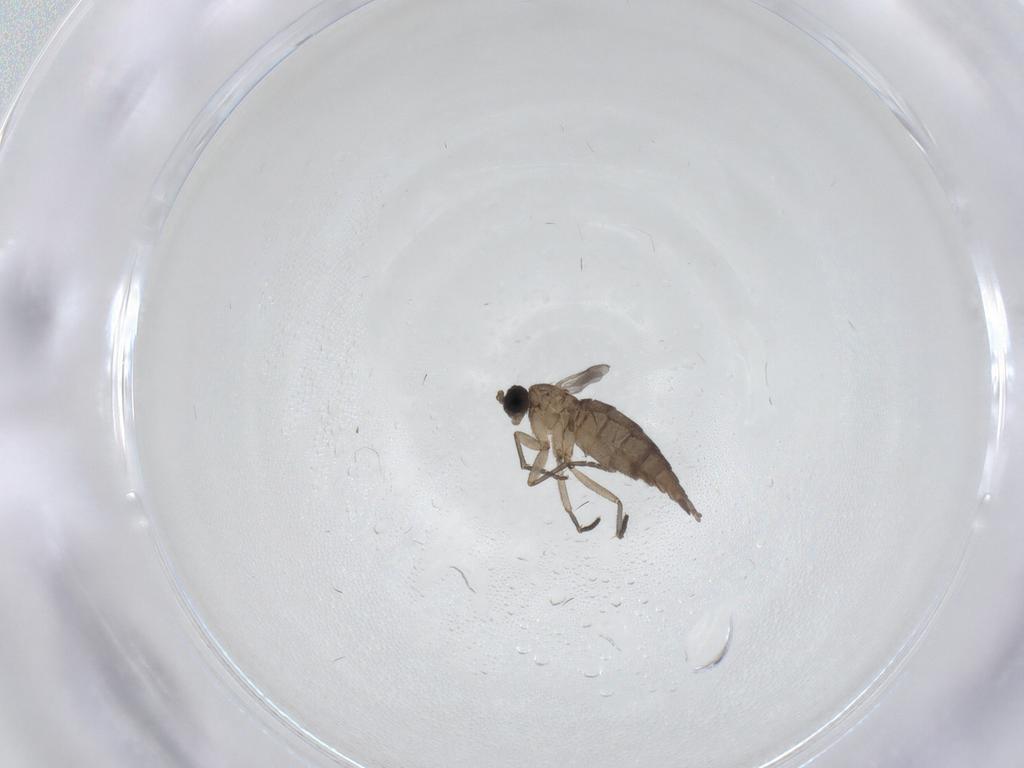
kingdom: Animalia
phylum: Arthropoda
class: Insecta
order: Diptera
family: Sciaridae
